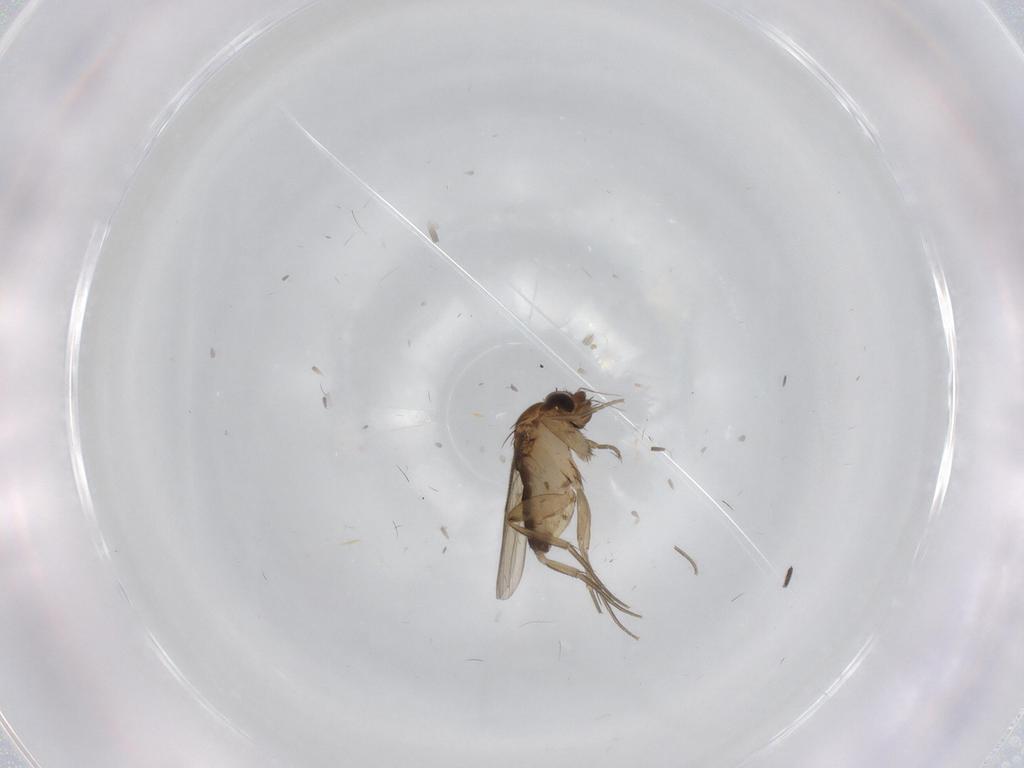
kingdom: Animalia
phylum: Arthropoda
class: Insecta
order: Diptera
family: Phoridae
